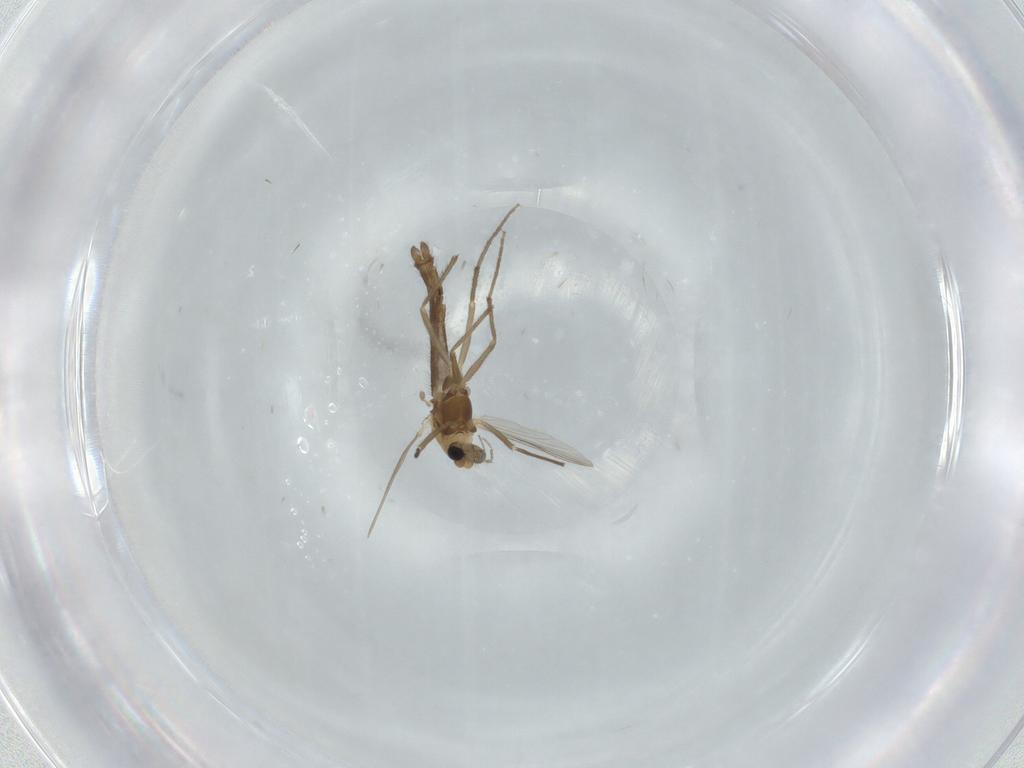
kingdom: Animalia
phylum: Arthropoda
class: Insecta
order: Diptera
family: Chironomidae
